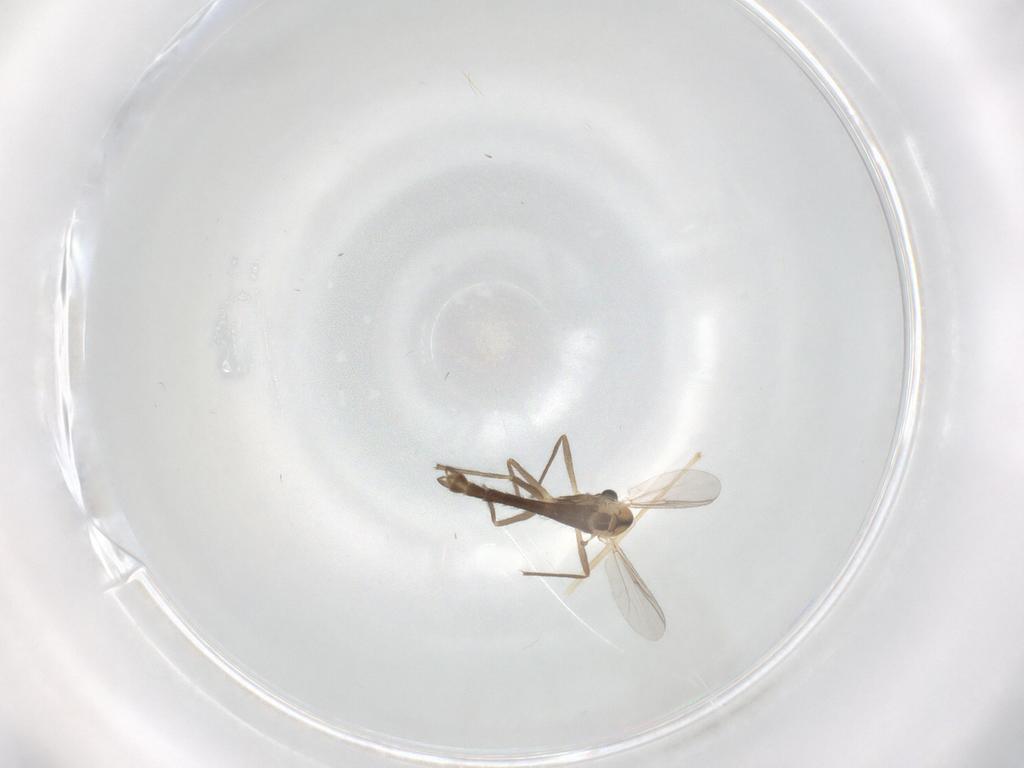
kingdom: Animalia
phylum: Arthropoda
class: Insecta
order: Diptera
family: Chironomidae
